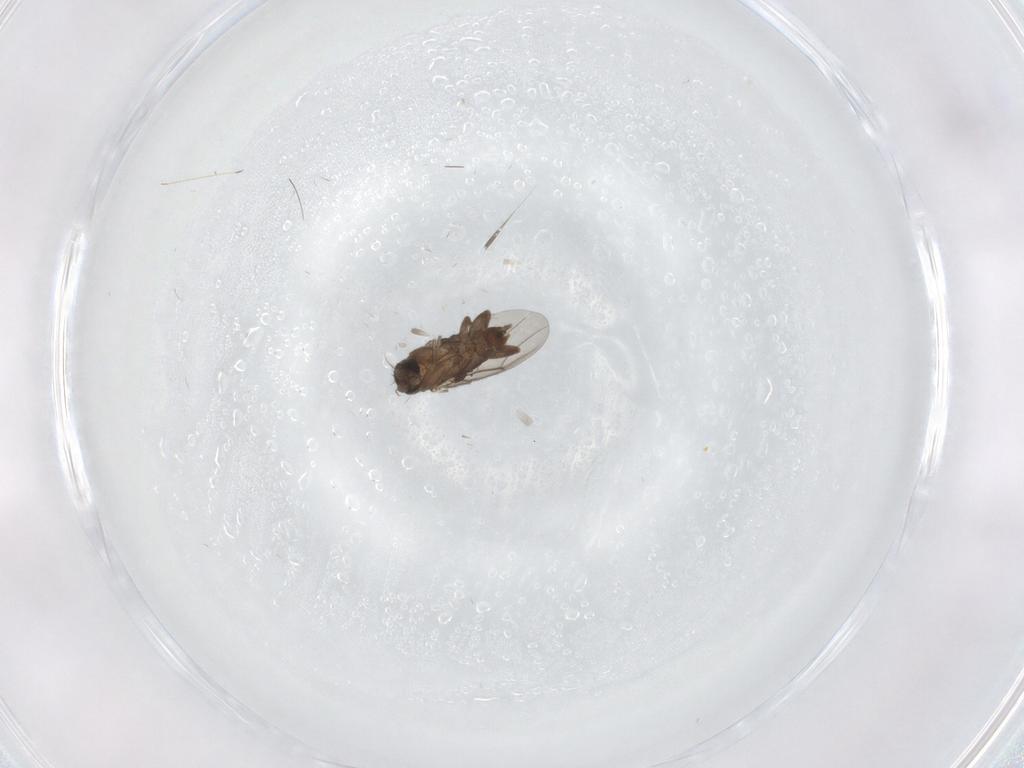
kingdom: Animalia
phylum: Arthropoda
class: Insecta
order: Diptera
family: Phoridae
